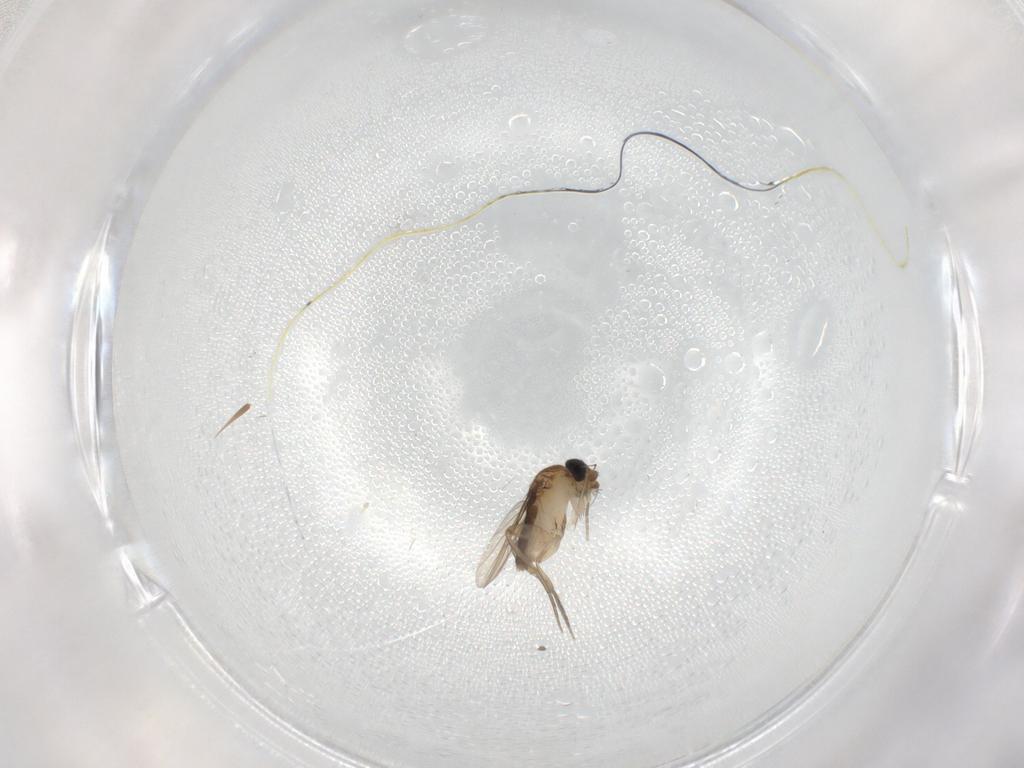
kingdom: Animalia
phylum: Arthropoda
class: Insecta
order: Diptera
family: Phoridae
